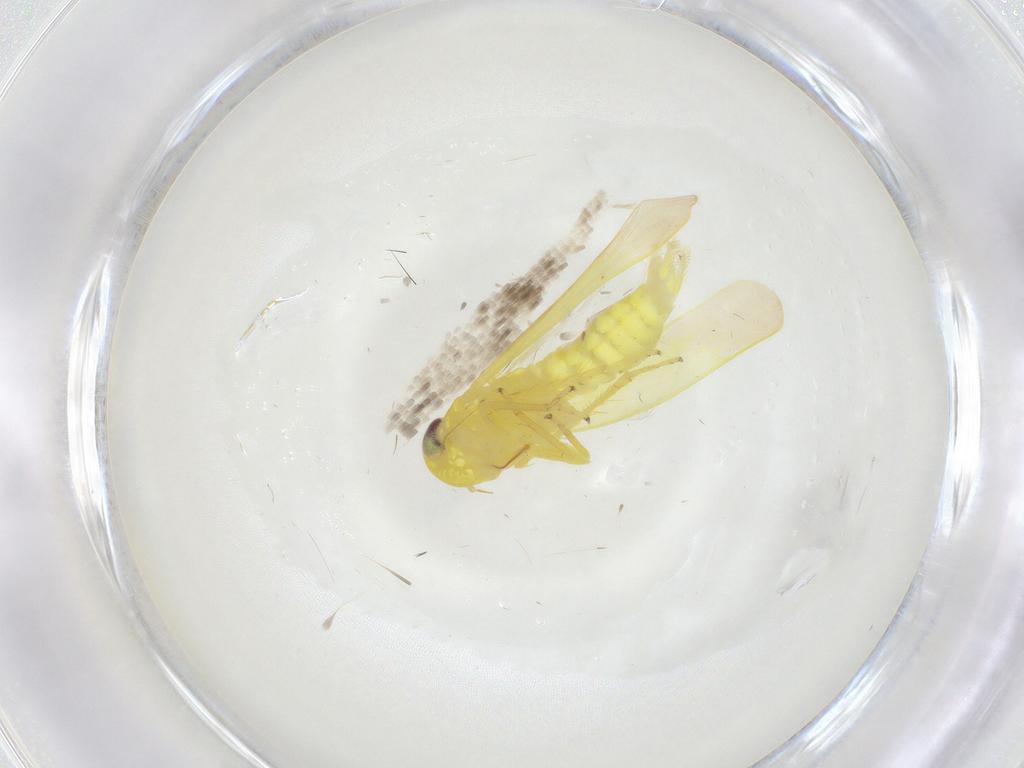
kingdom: Animalia
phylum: Arthropoda
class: Insecta
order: Hemiptera
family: Cicadellidae
